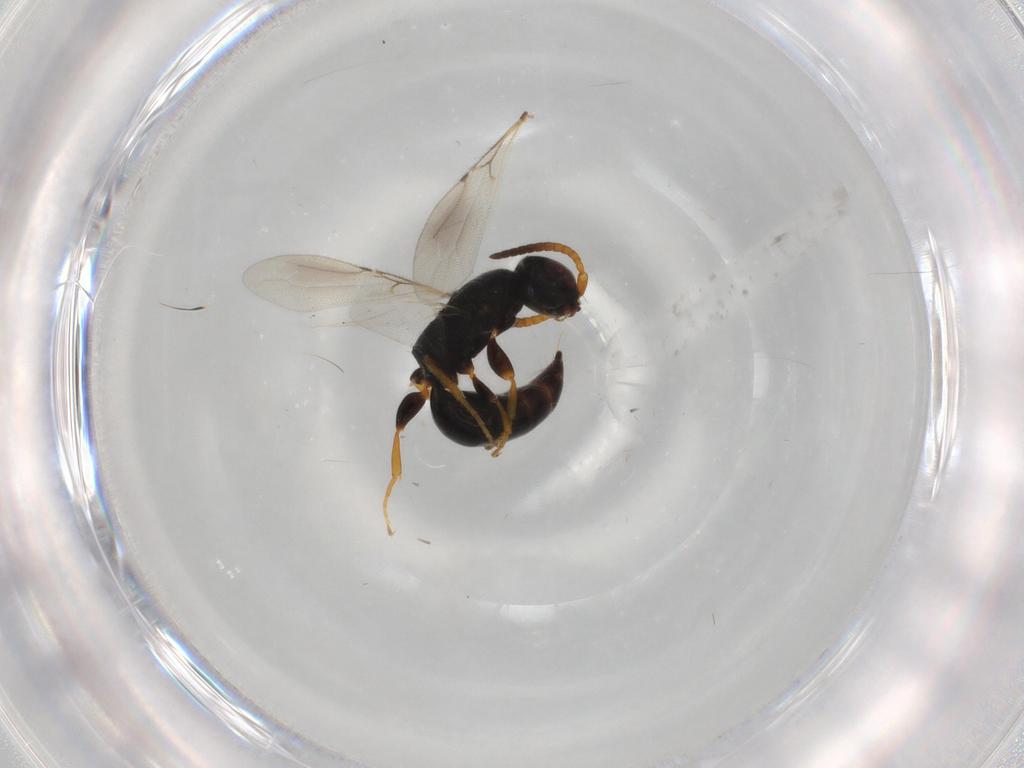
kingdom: Animalia
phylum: Arthropoda
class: Insecta
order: Hymenoptera
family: Bethylidae
